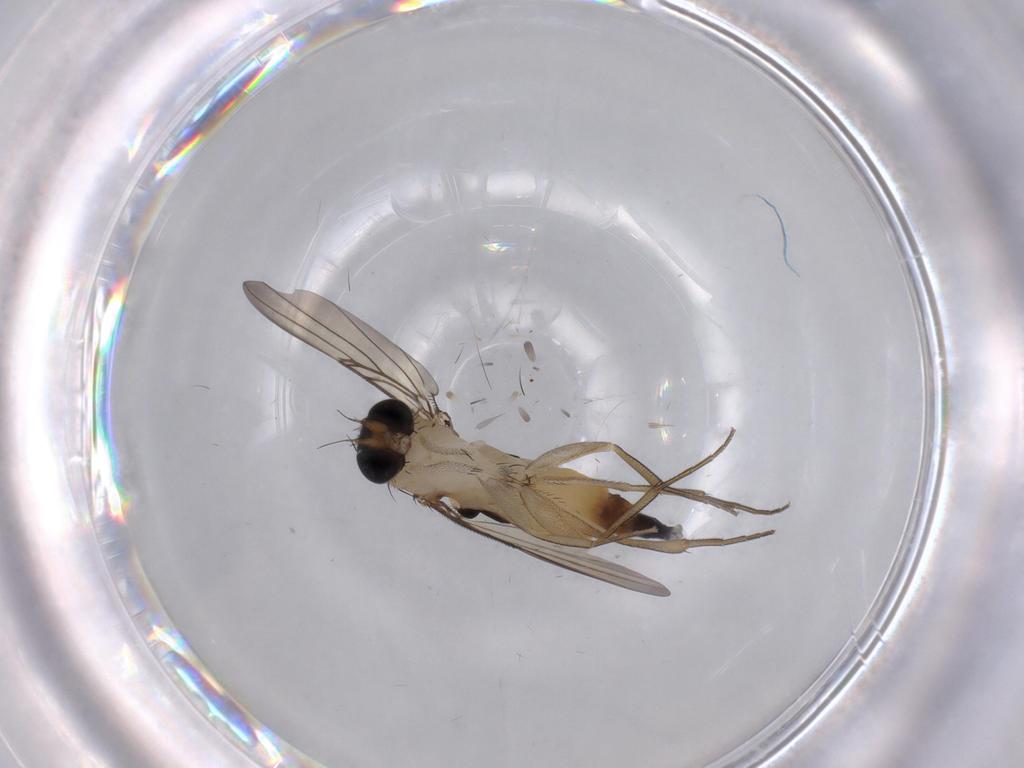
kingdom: Animalia
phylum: Arthropoda
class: Insecta
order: Diptera
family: Phoridae
